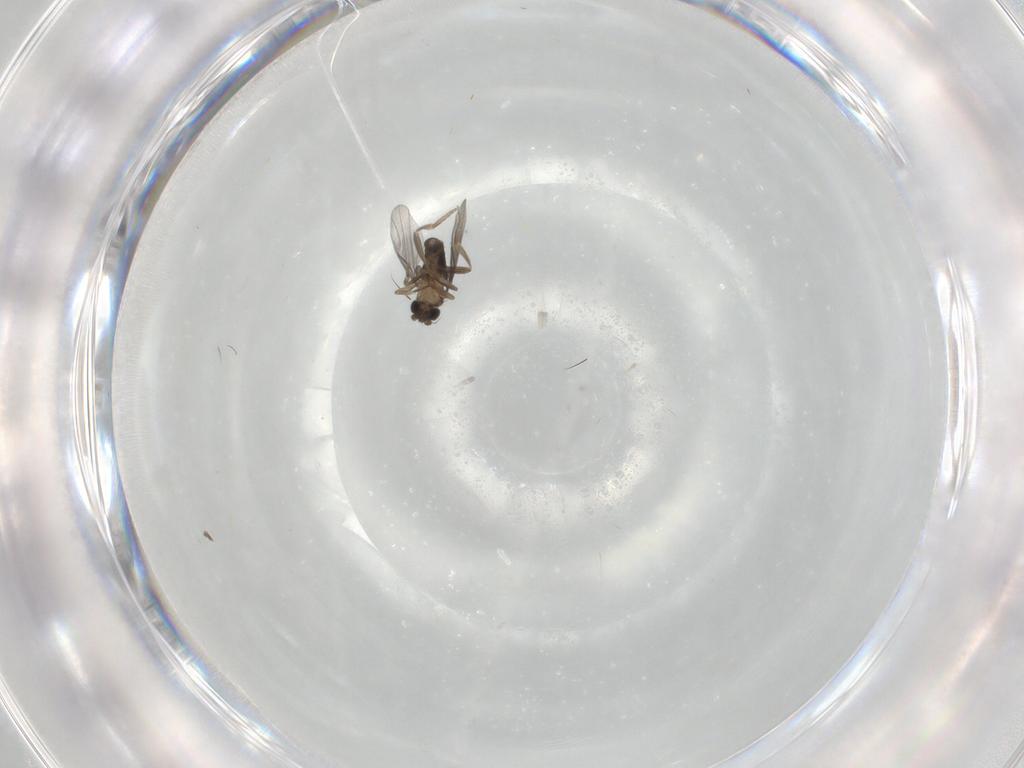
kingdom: Animalia
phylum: Arthropoda
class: Insecta
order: Diptera
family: Chironomidae
